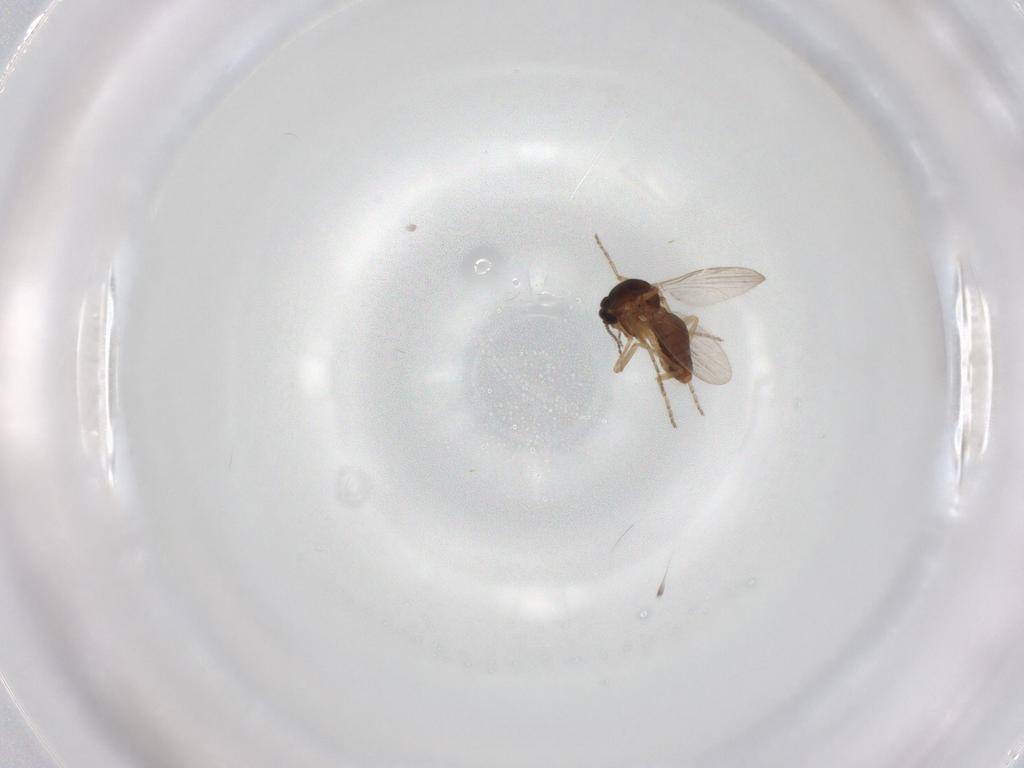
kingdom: Animalia
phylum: Arthropoda
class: Insecta
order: Diptera
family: Ceratopogonidae
